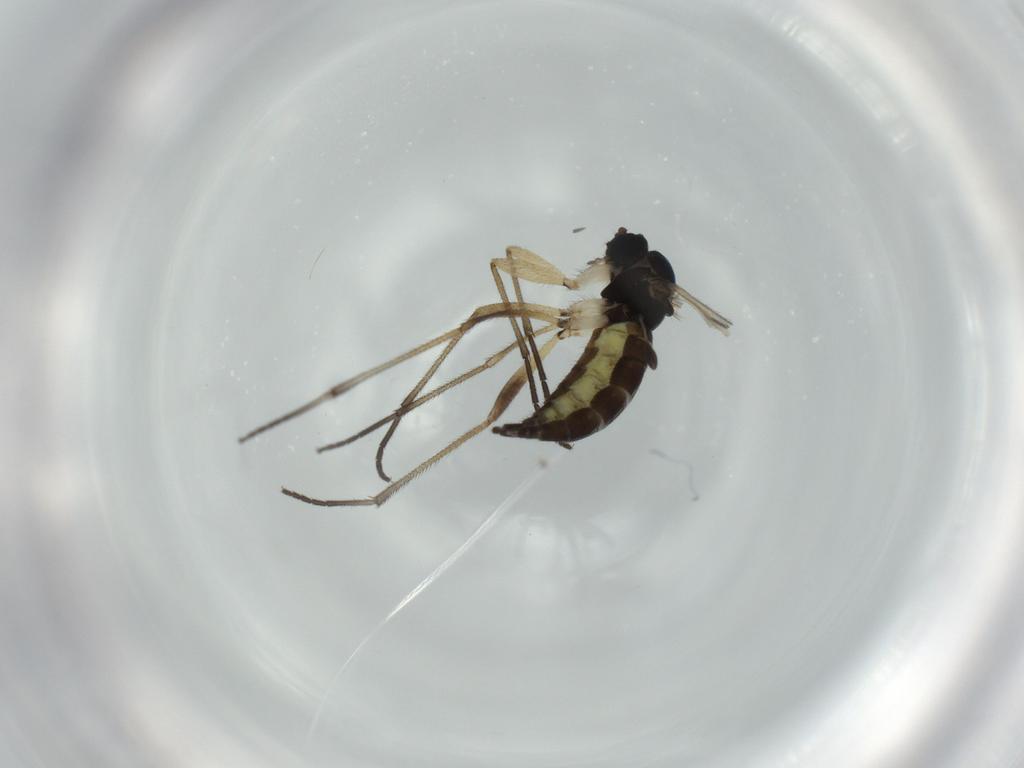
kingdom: Animalia
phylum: Arthropoda
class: Insecta
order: Diptera
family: Sciaridae
